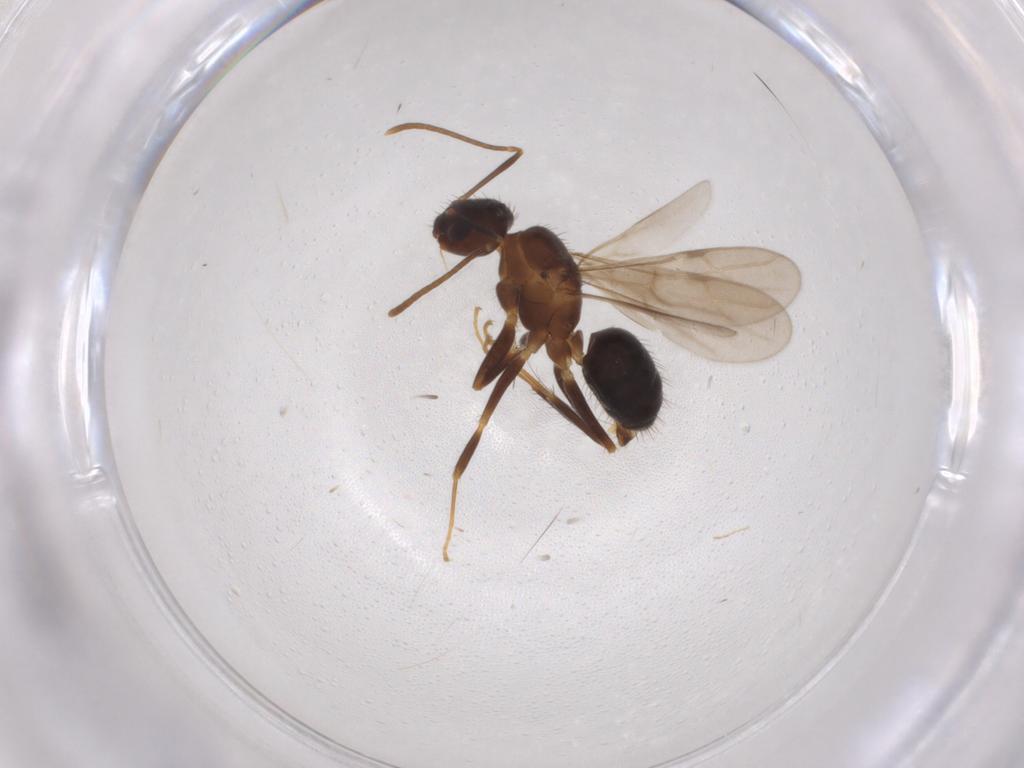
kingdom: Animalia
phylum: Arthropoda
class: Insecta
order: Hymenoptera
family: Formicidae
